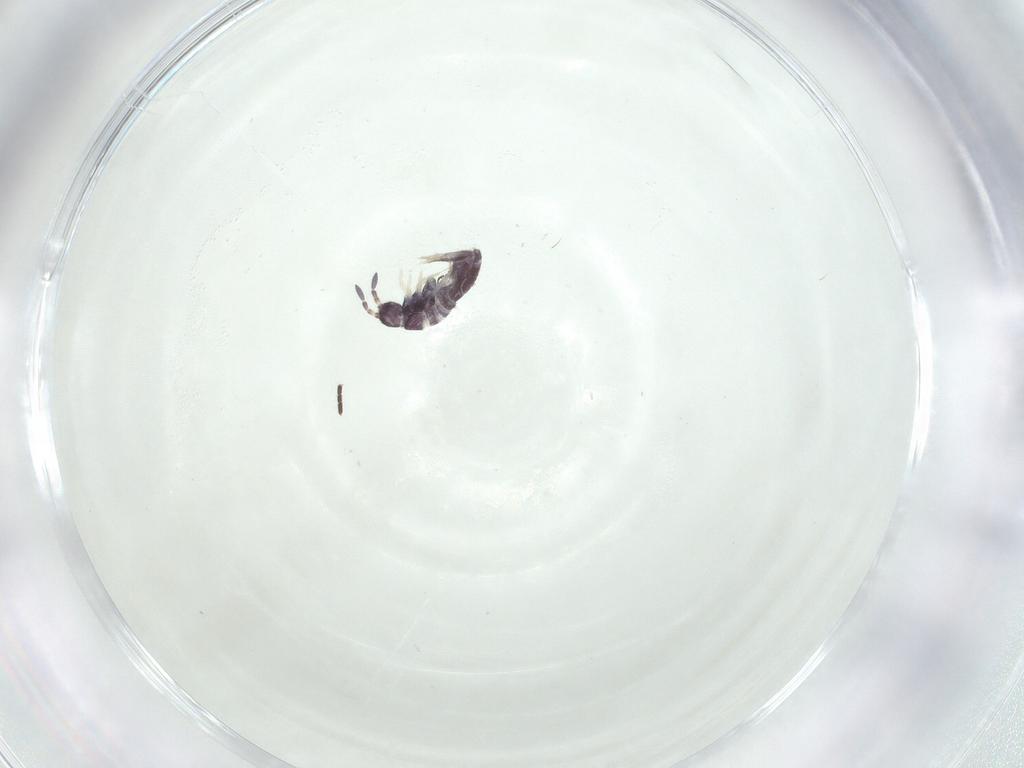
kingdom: Animalia
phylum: Arthropoda
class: Collembola
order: Entomobryomorpha
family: Entomobryidae
